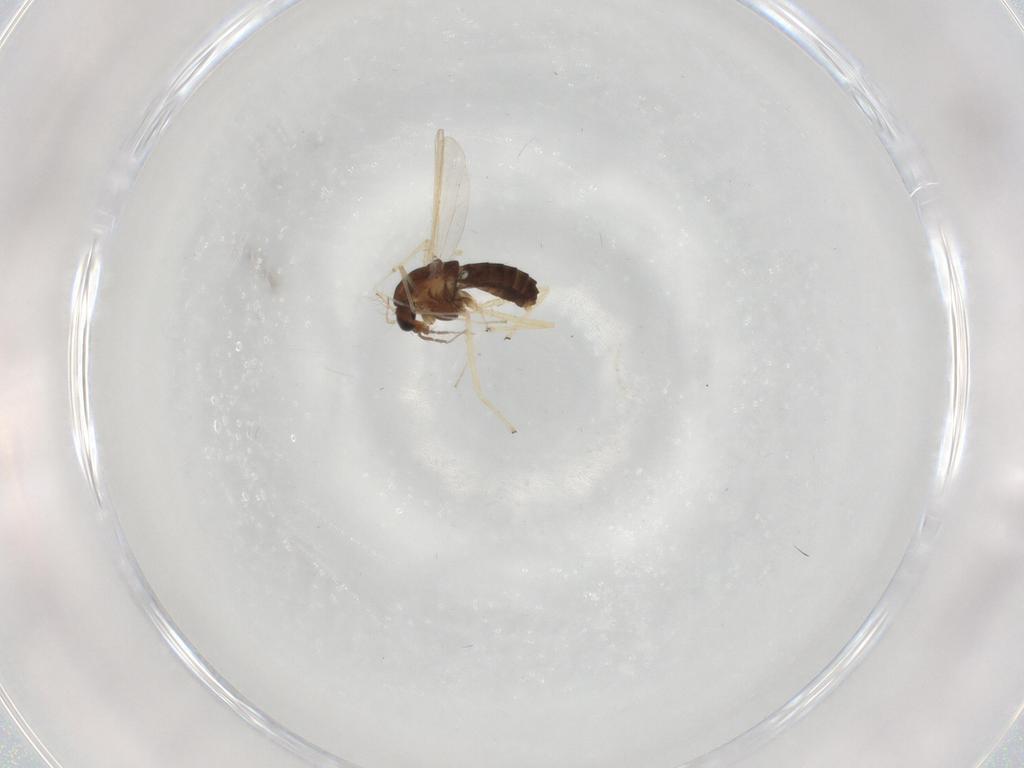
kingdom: Animalia
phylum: Arthropoda
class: Insecta
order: Diptera
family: Chironomidae
